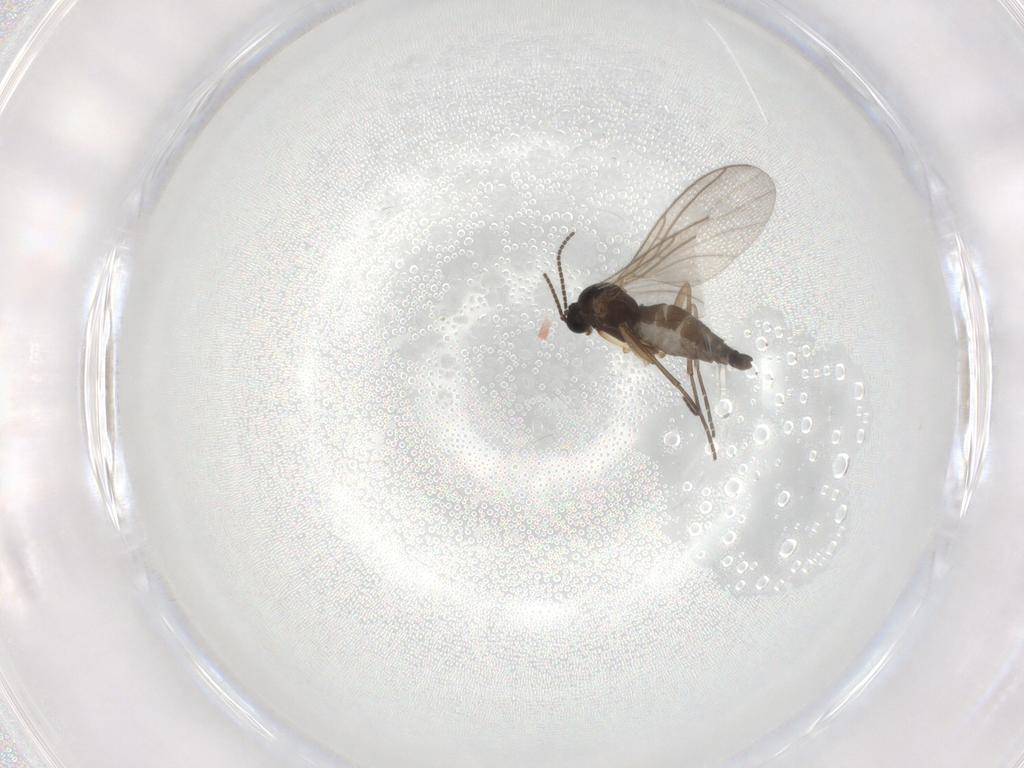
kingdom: Animalia
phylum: Arthropoda
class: Insecta
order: Diptera
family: Sciaridae
